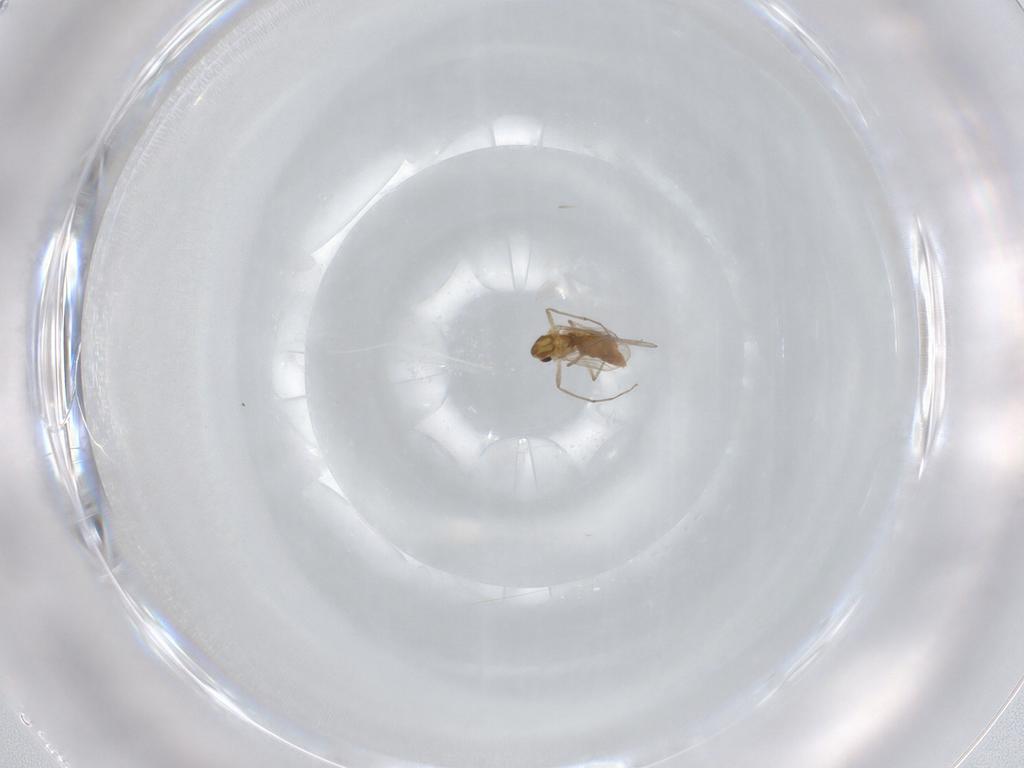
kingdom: Animalia
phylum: Arthropoda
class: Insecta
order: Diptera
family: Chironomidae
